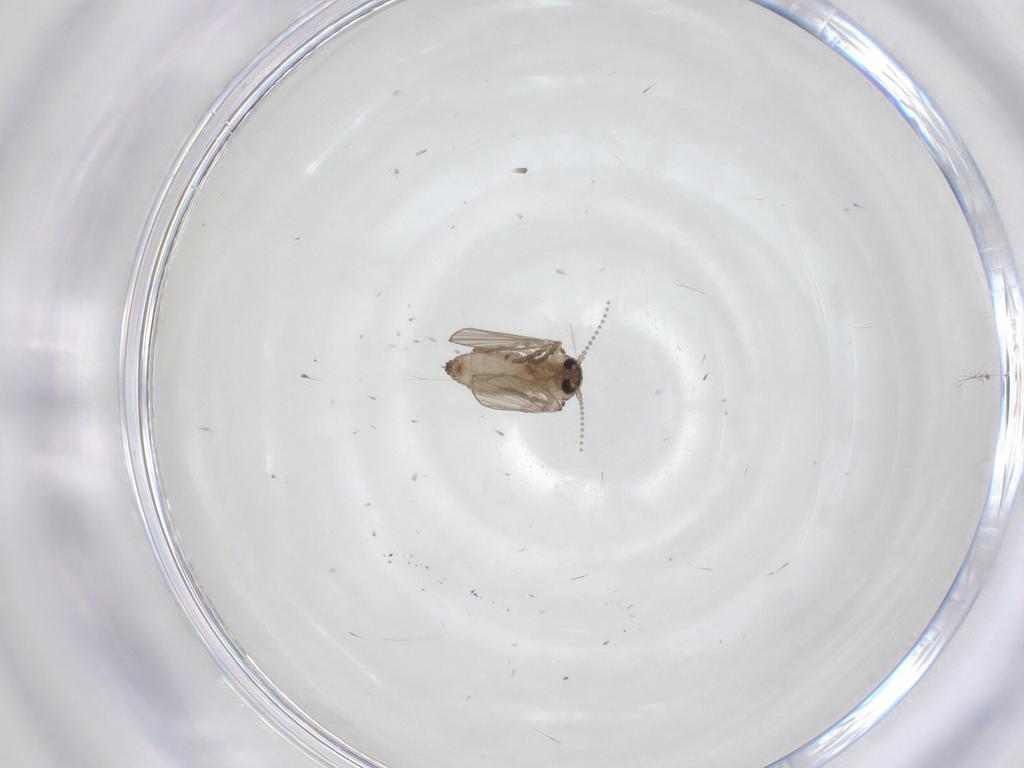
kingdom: Animalia
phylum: Arthropoda
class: Insecta
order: Diptera
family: Psychodidae
